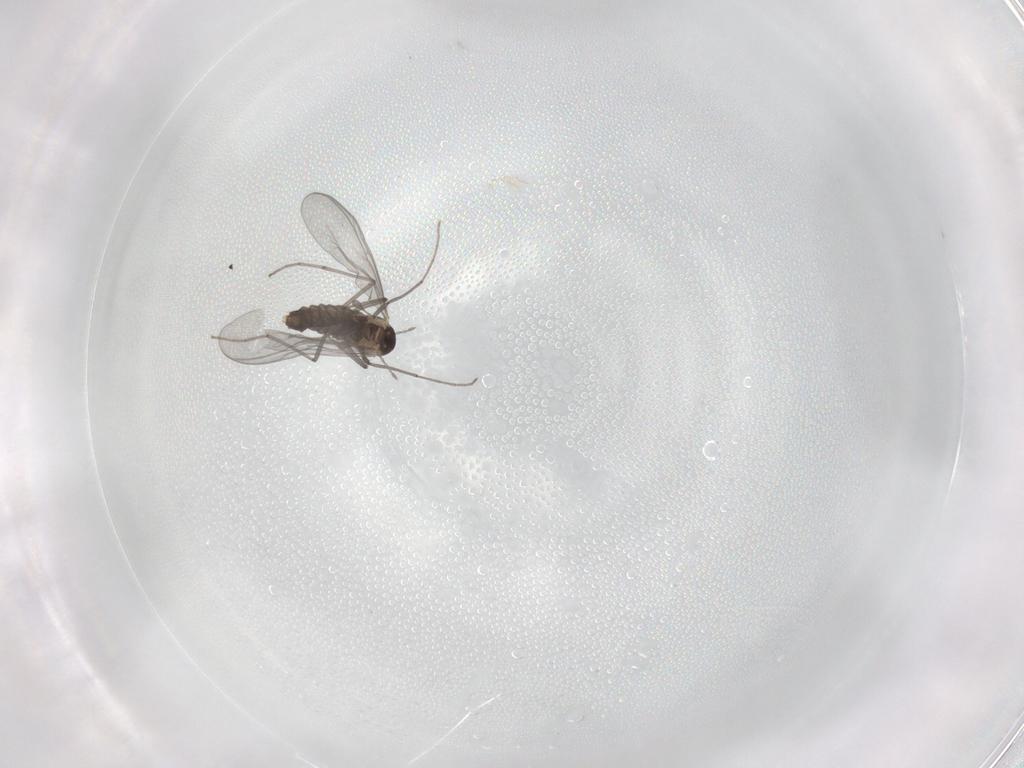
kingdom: Animalia
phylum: Arthropoda
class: Insecta
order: Diptera
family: Chironomidae
